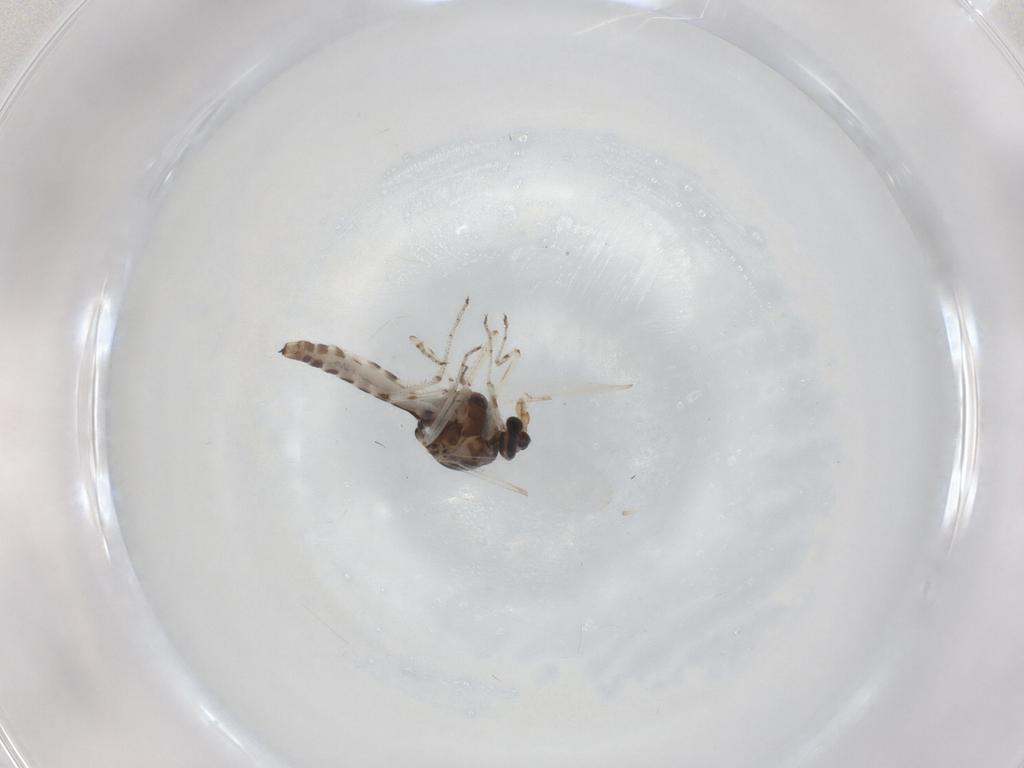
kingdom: Animalia
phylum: Arthropoda
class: Insecta
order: Diptera
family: Ceratopogonidae
